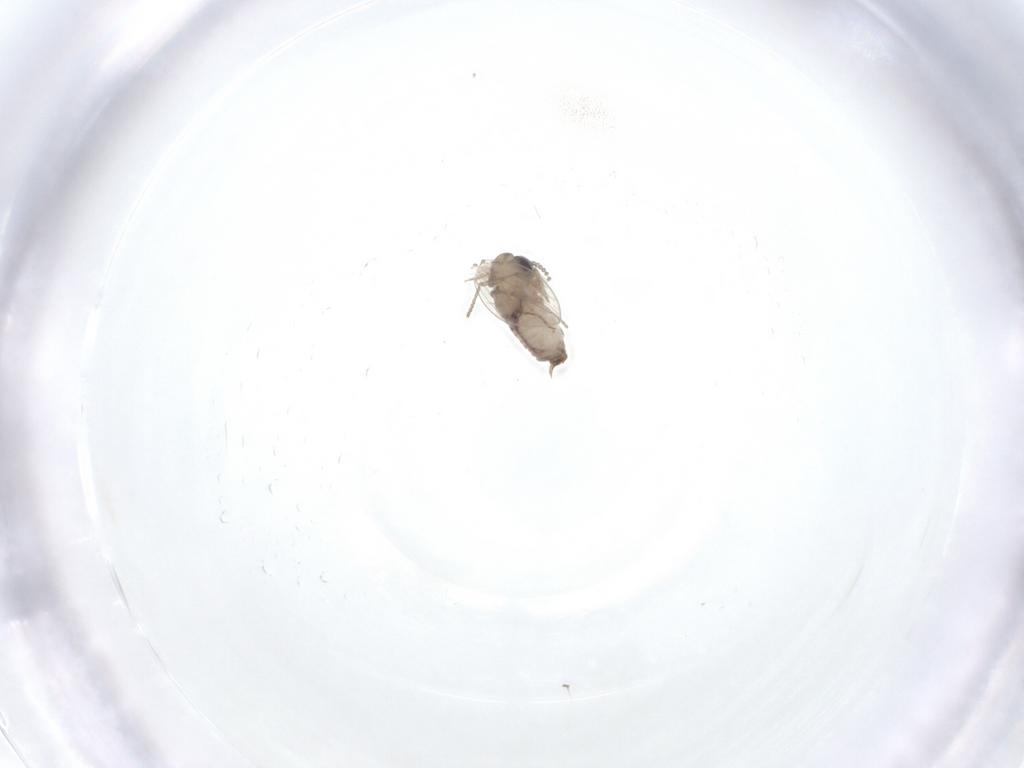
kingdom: Animalia
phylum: Arthropoda
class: Insecta
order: Diptera
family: Psychodidae
